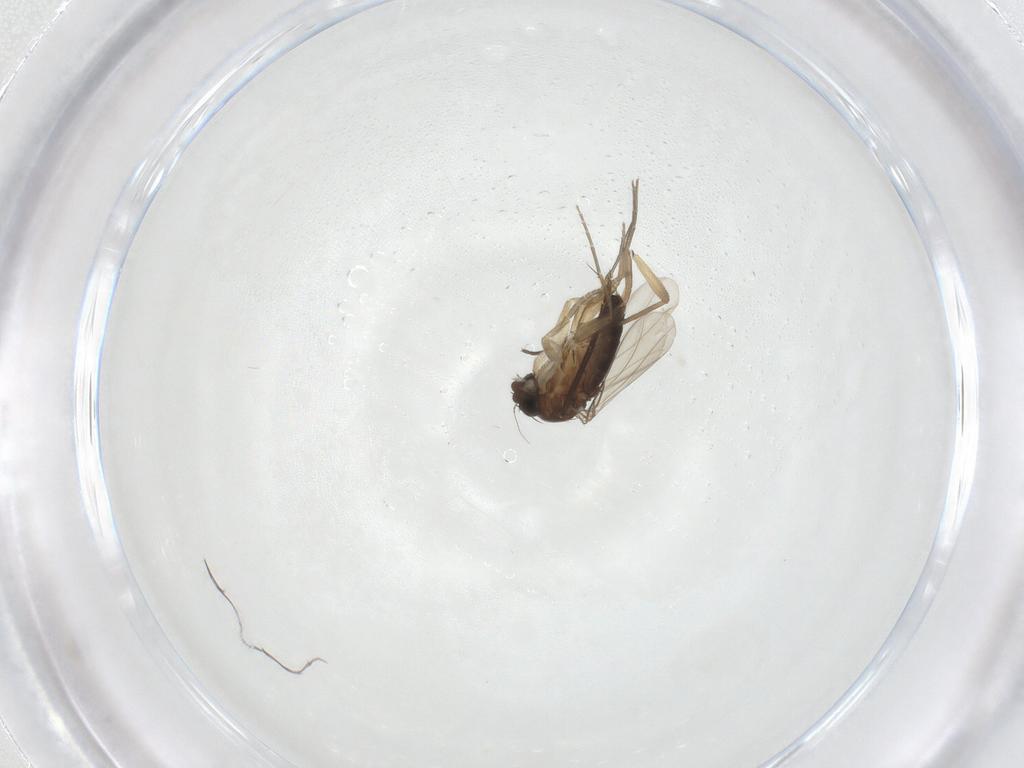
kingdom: Animalia
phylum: Arthropoda
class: Insecta
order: Diptera
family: Phoridae
